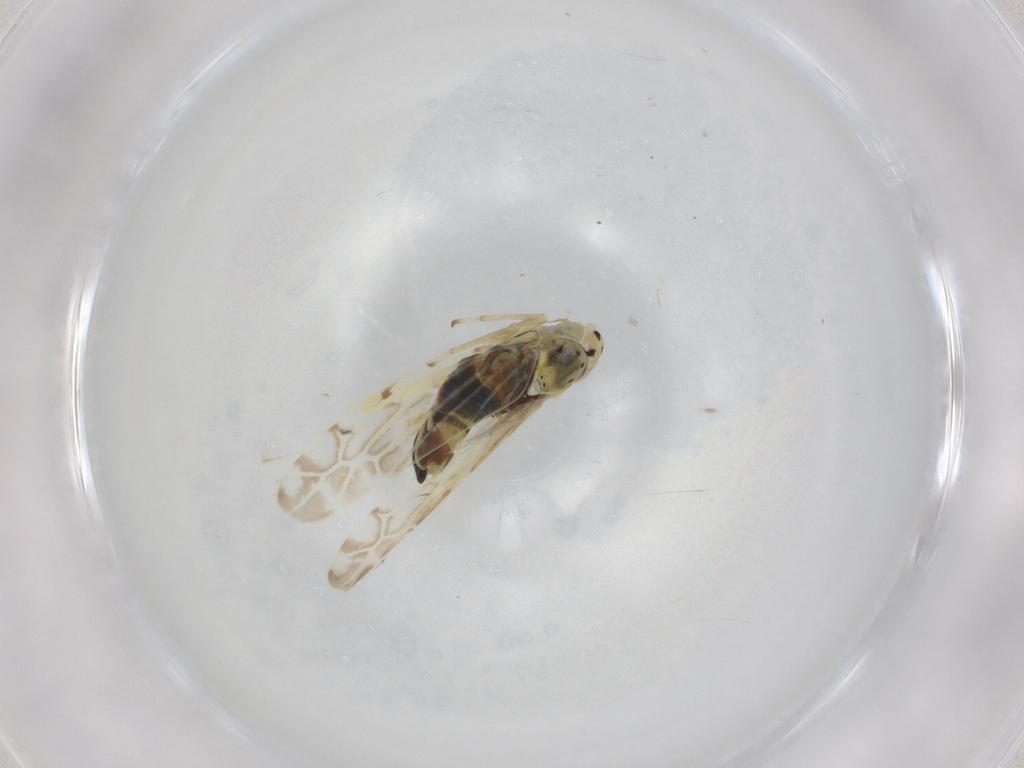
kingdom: Animalia
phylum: Arthropoda
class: Insecta
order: Hemiptera
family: Cicadellidae
